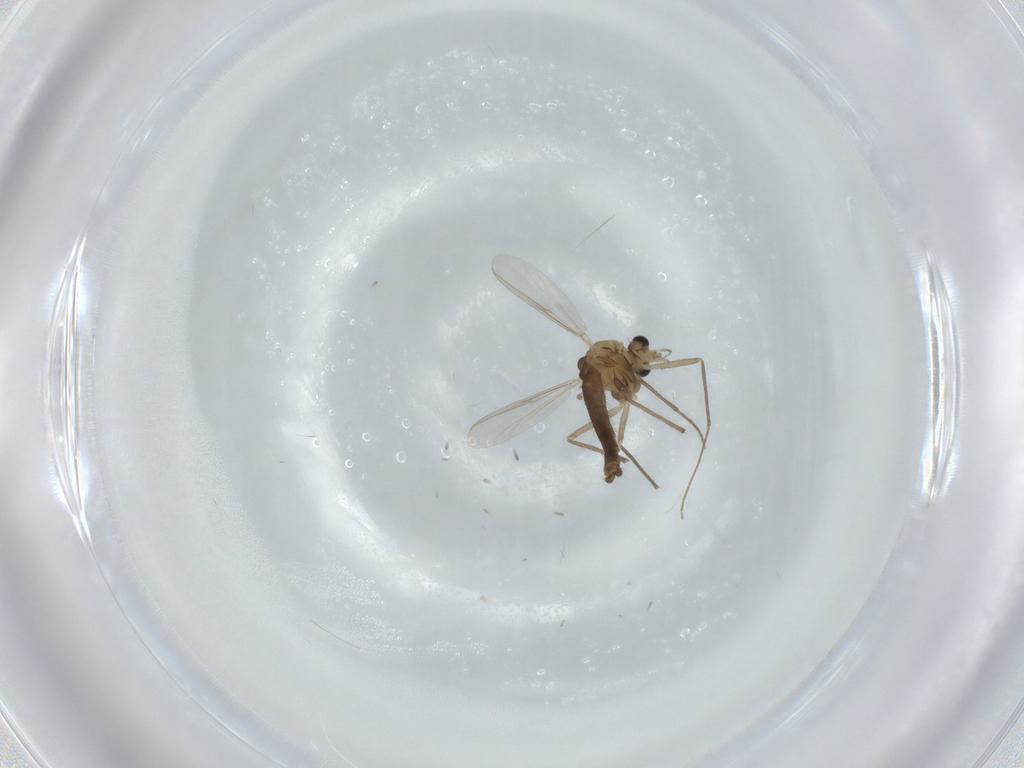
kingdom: Animalia
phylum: Arthropoda
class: Insecta
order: Diptera
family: Chironomidae
